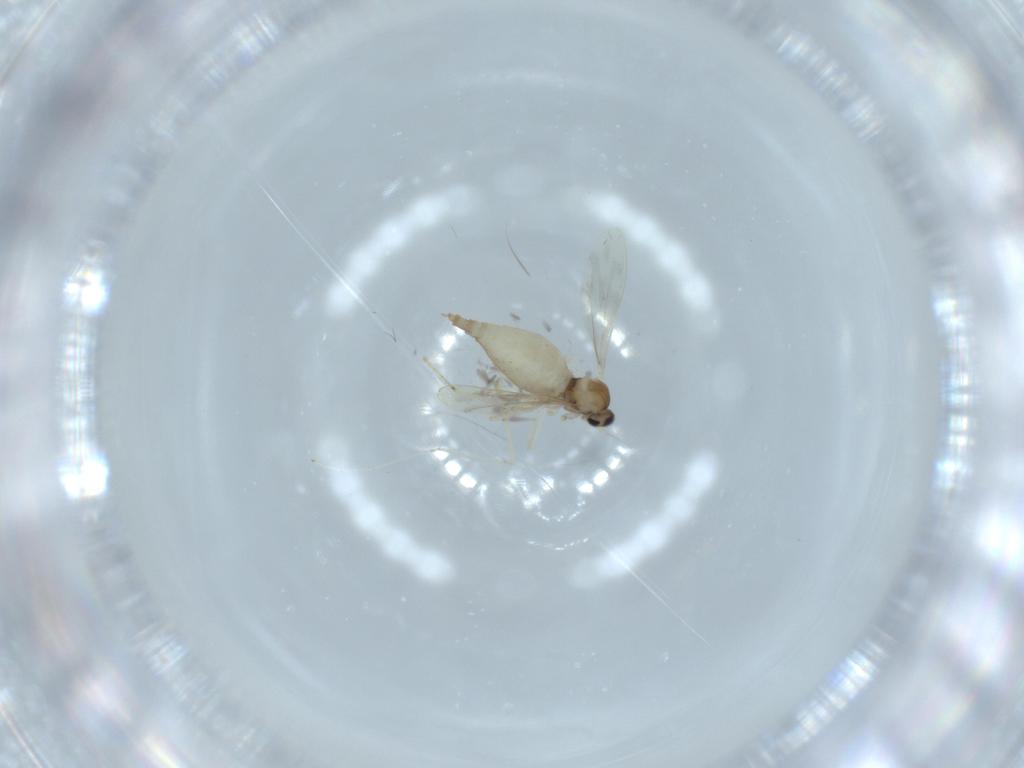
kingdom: Animalia
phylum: Arthropoda
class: Insecta
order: Diptera
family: Cecidomyiidae
